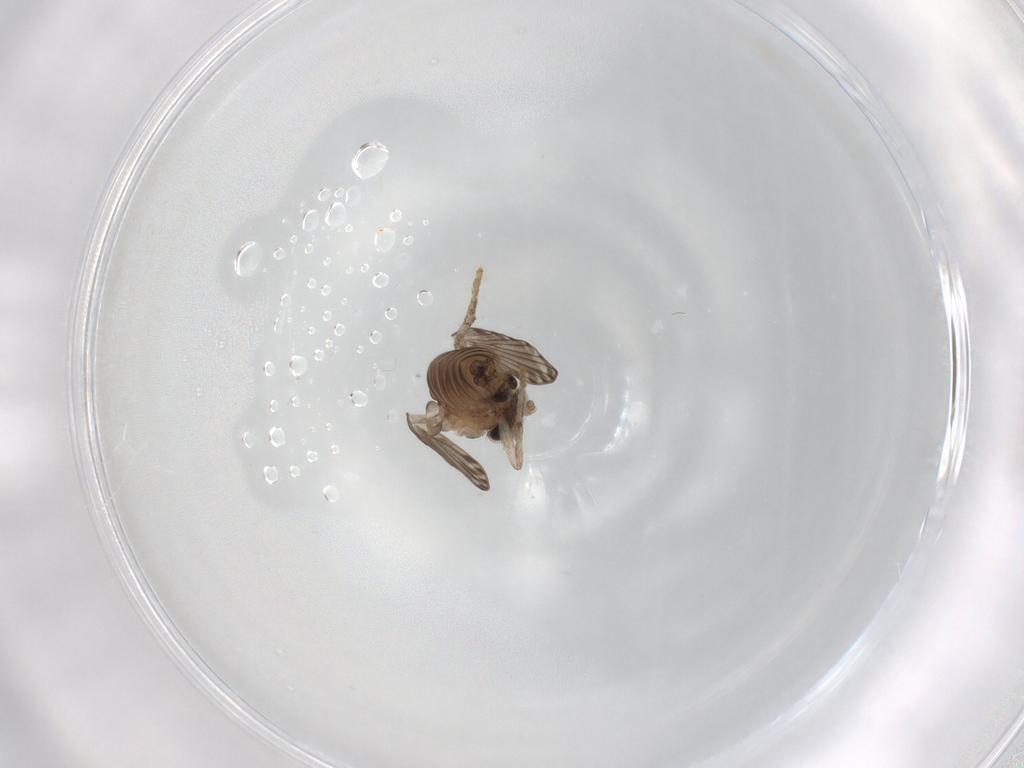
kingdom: Animalia
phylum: Arthropoda
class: Insecta
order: Diptera
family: Psychodidae
